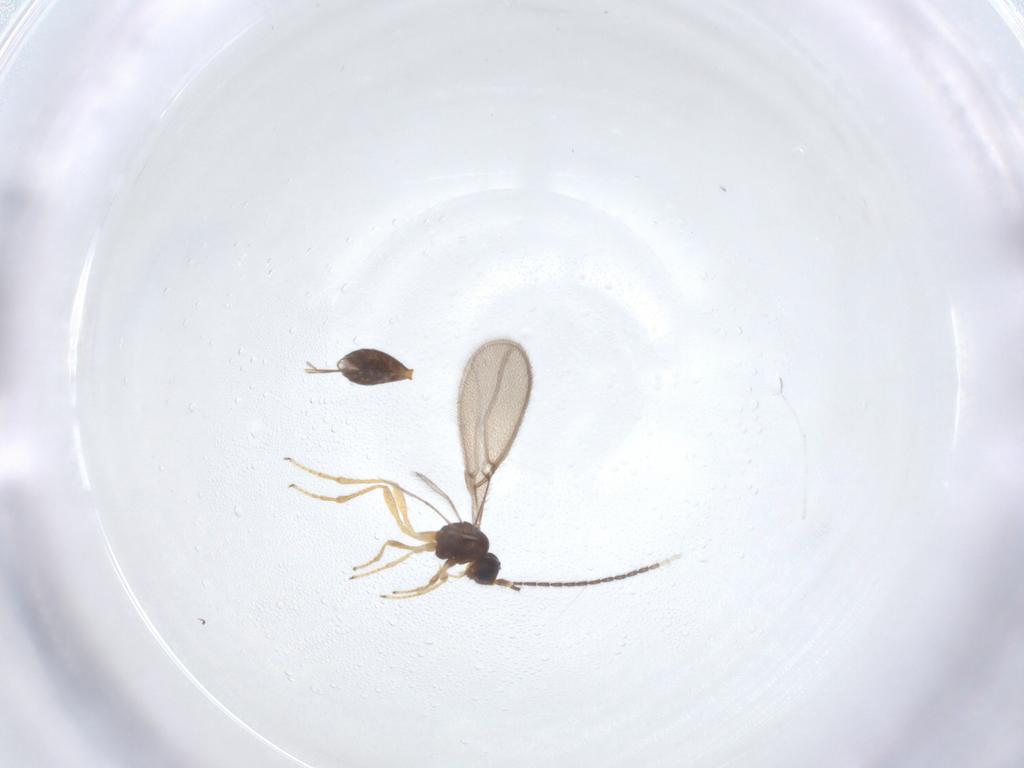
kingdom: Animalia
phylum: Arthropoda
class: Insecta
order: Hymenoptera
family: Braconidae
